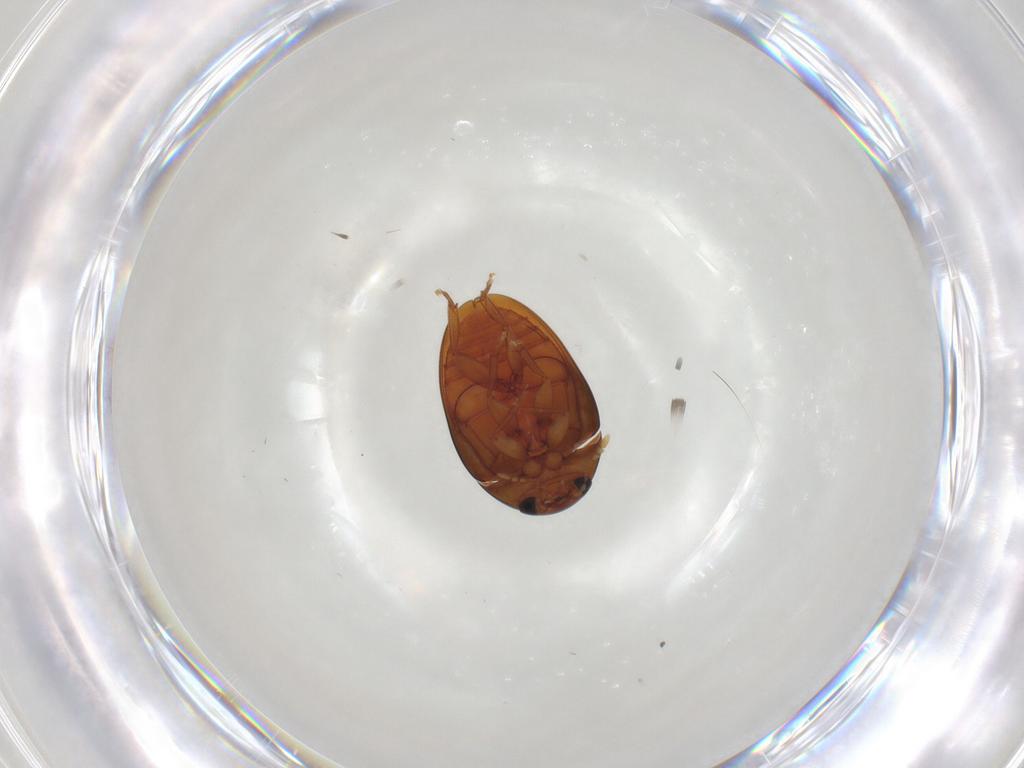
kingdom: Animalia
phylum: Arthropoda
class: Insecta
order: Coleoptera
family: Phalacridae
